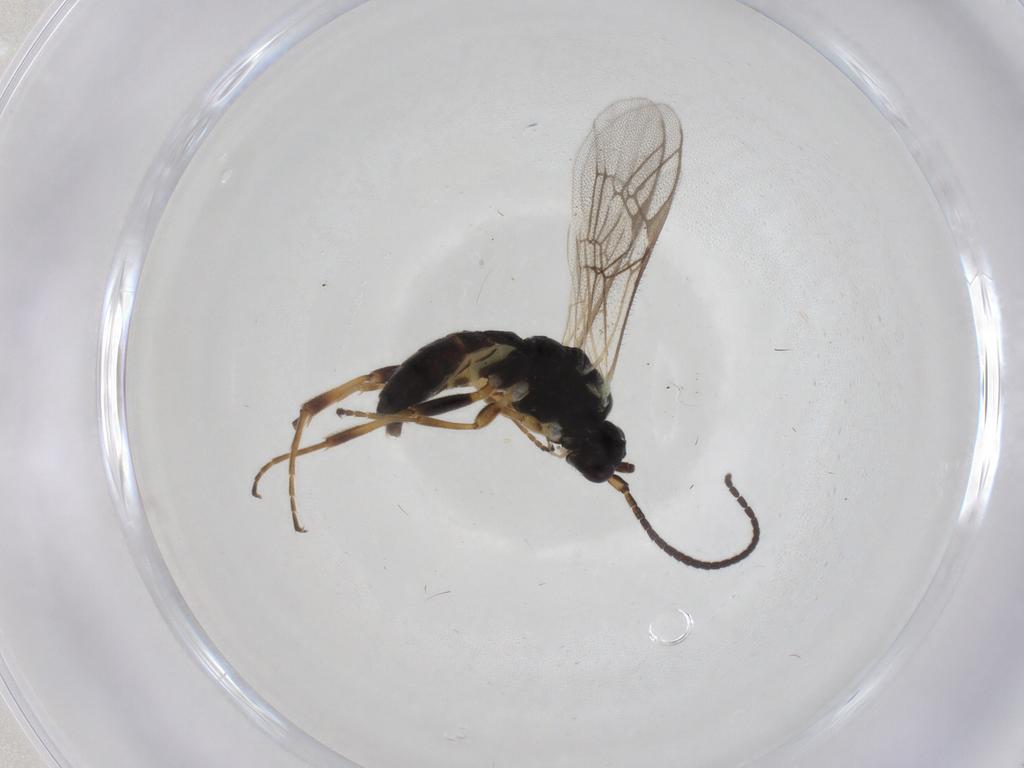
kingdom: Animalia
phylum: Arthropoda
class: Insecta
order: Hymenoptera
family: Ichneumonidae
